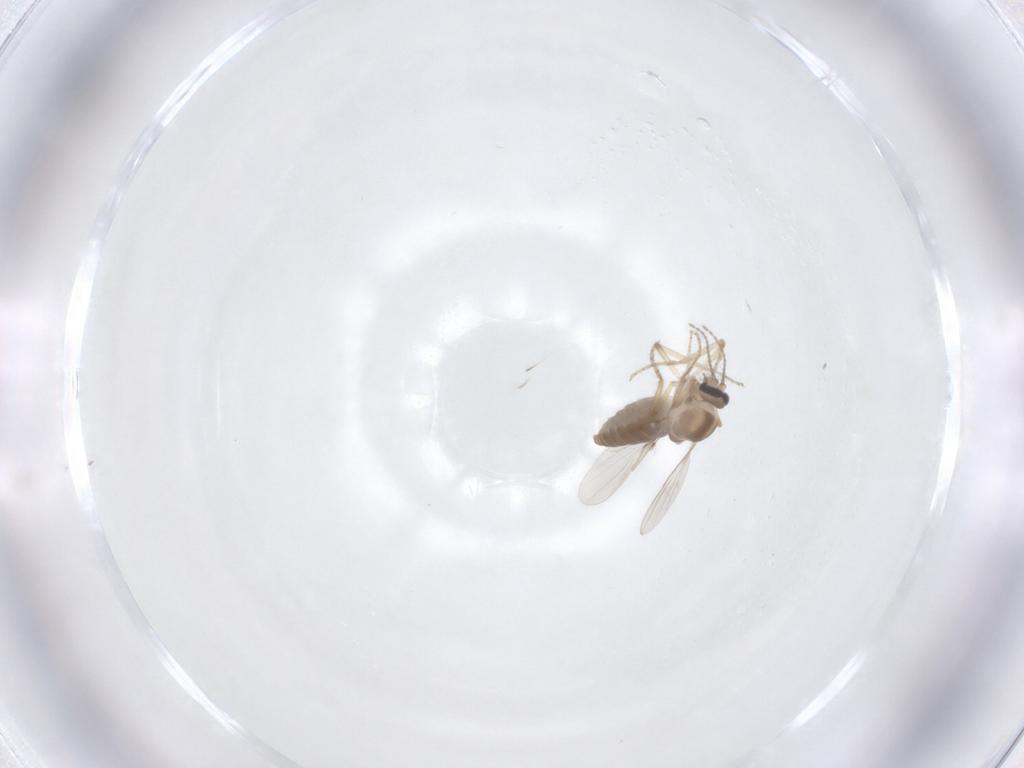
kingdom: Animalia
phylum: Arthropoda
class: Insecta
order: Diptera
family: Ceratopogonidae
